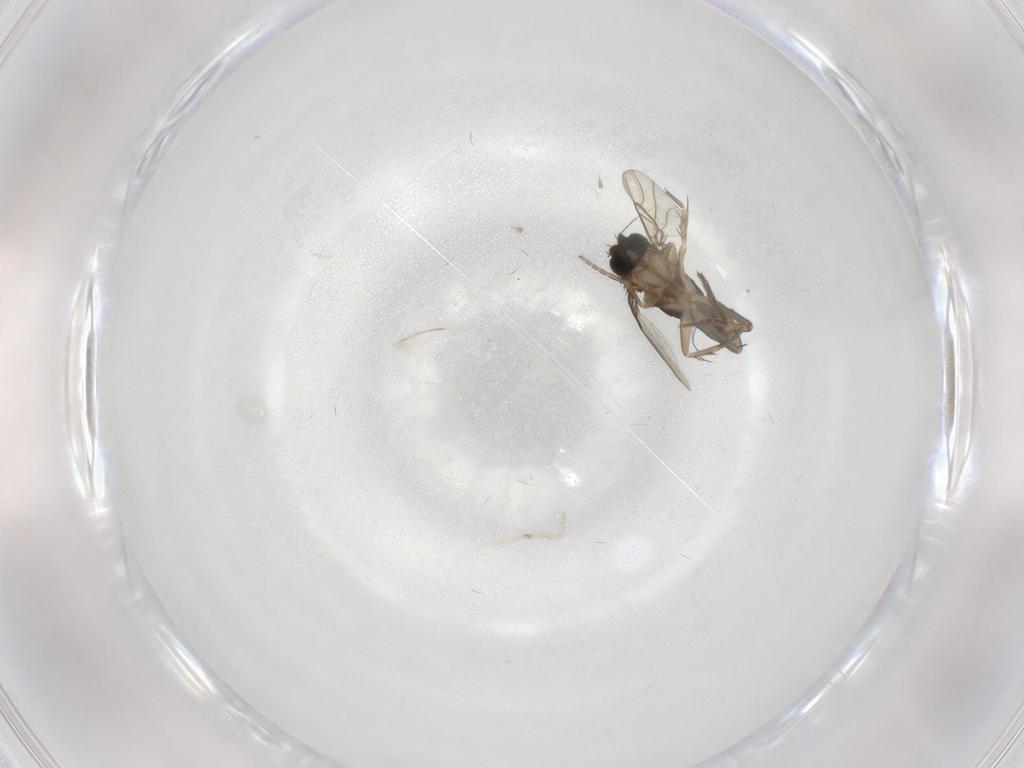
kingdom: Animalia
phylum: Arthropoda
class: Insecta
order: Diptera
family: Phoridae
